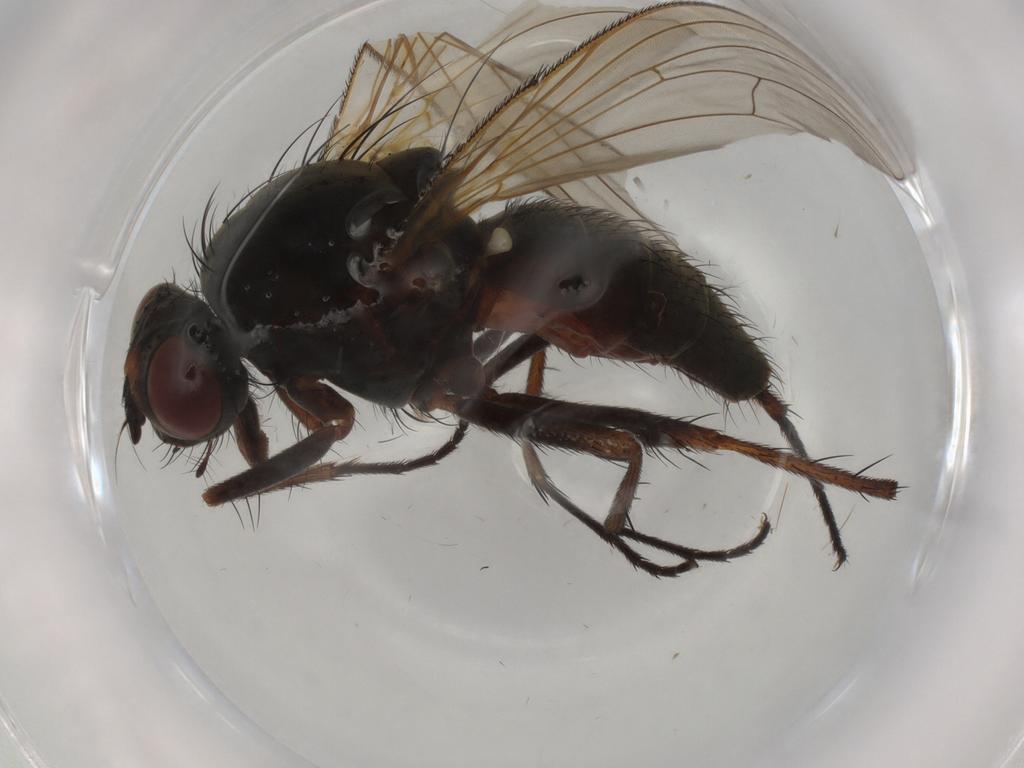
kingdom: Animalia
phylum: Arthropoda
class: Insecta
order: Diptera
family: Anthomyiidae
